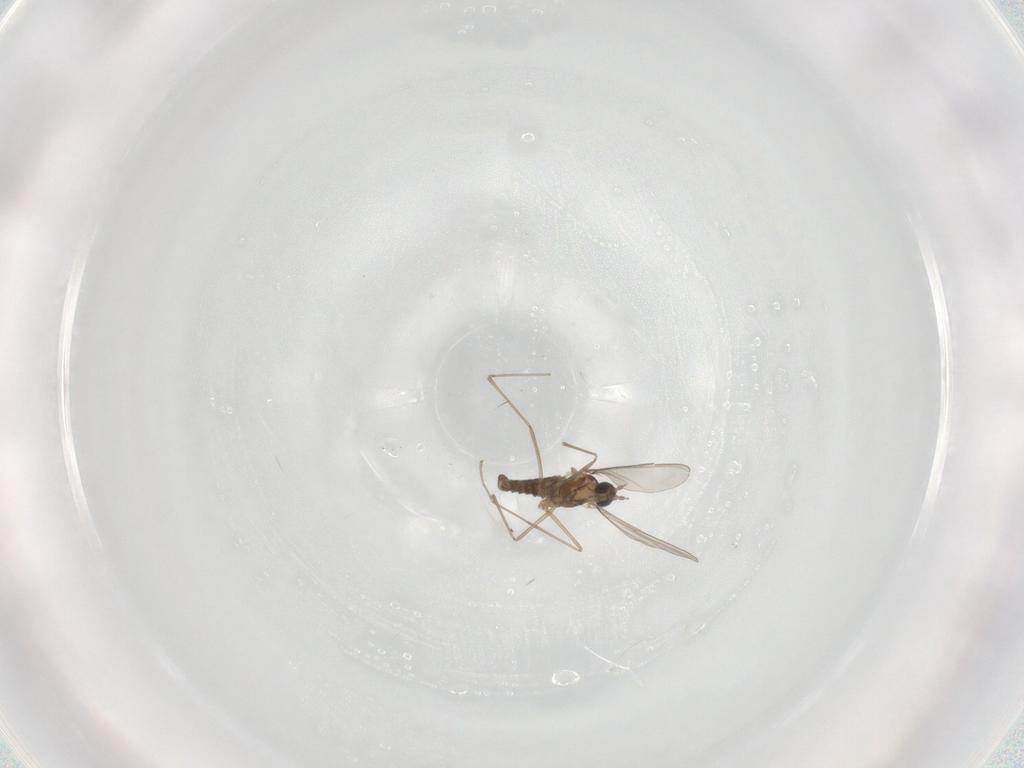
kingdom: Animalia
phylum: Arthropoda
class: Insecta
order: Diptera
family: Cecidomyiidae
